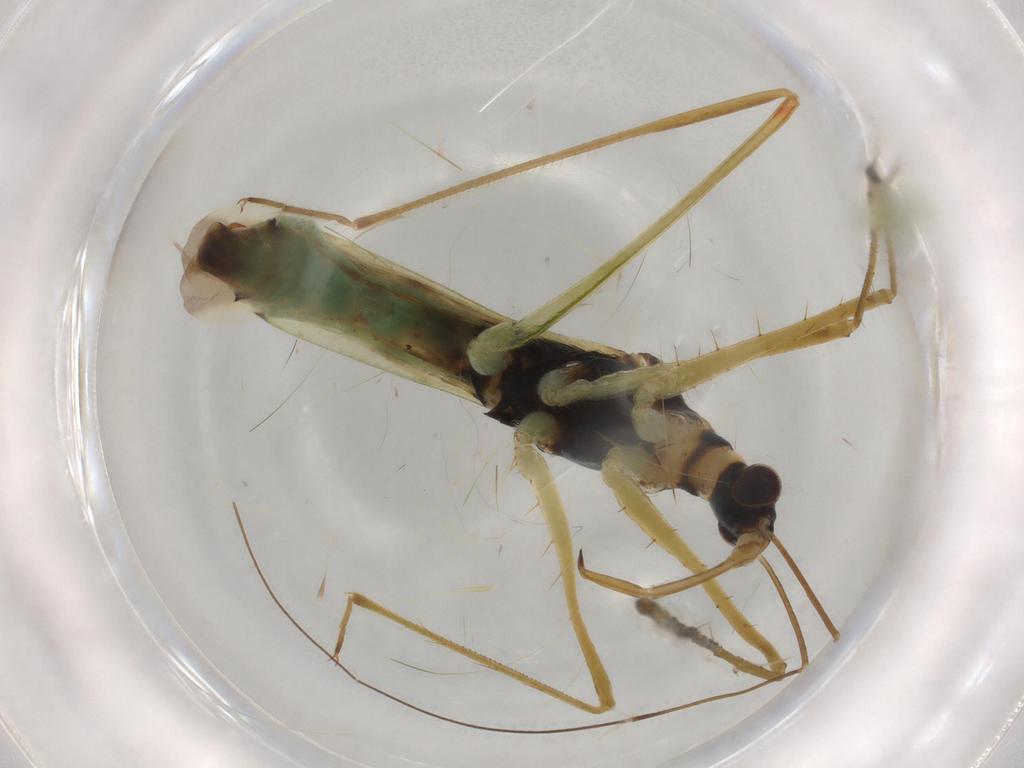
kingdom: Animalia
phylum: Arthropoda
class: Insecta
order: Hemiptera
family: Nabidae
